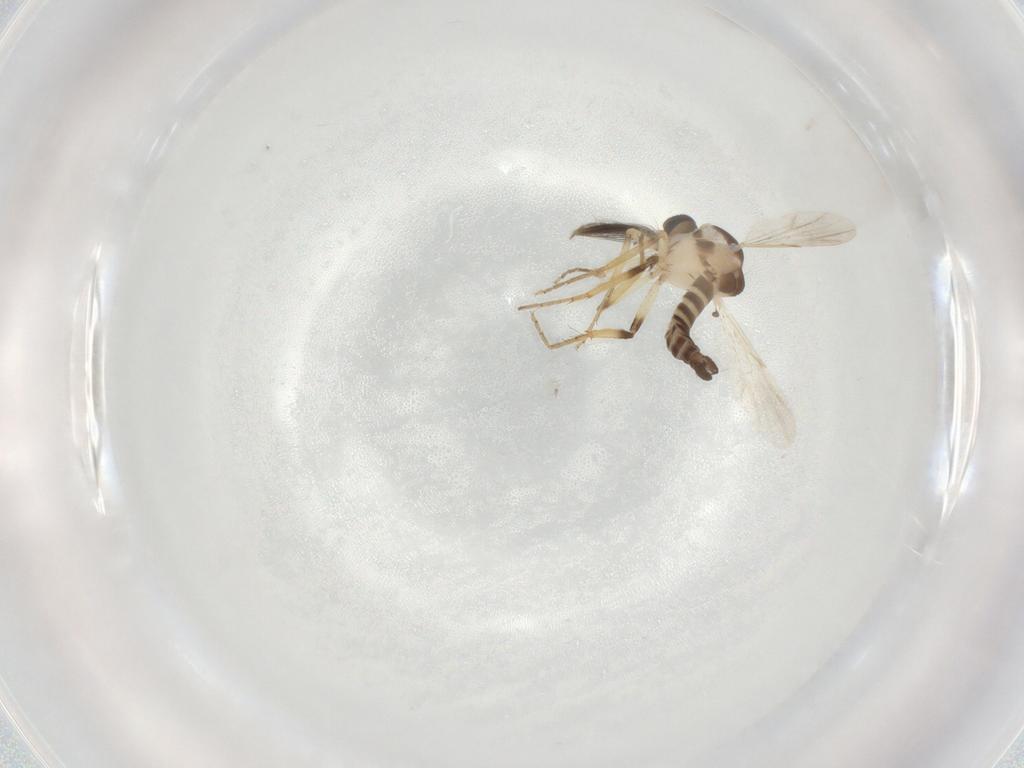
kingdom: Animalia
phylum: Arthropoda
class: Insecta
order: Diptera
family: Ceratopogonidae
